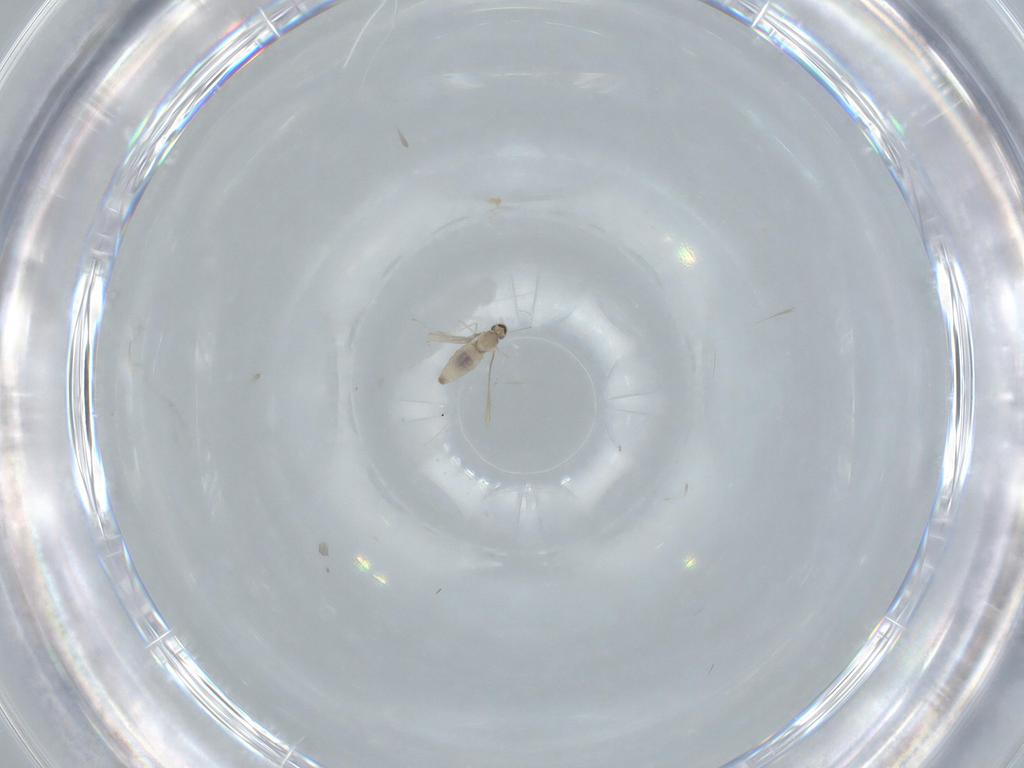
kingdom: Animalia
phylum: Arthropoda
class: Insecta
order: Diptera
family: Cecidomyiidae
